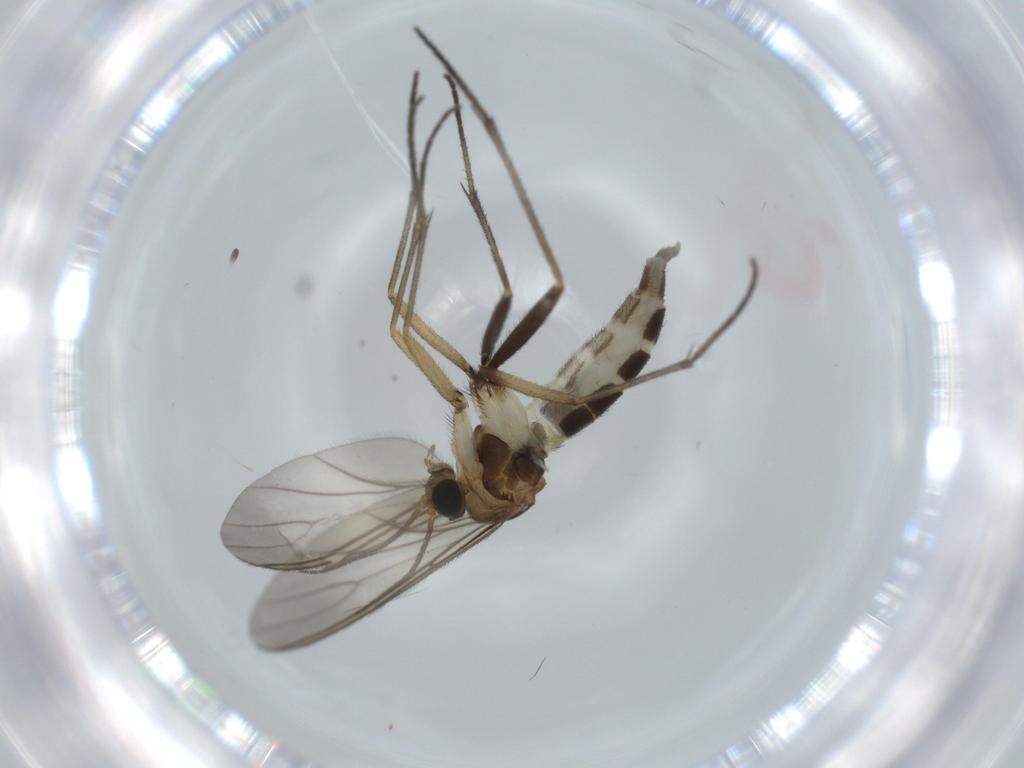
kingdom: Animalia
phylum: Arthropoda
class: Insecta
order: Diptera
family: Sciaridae
